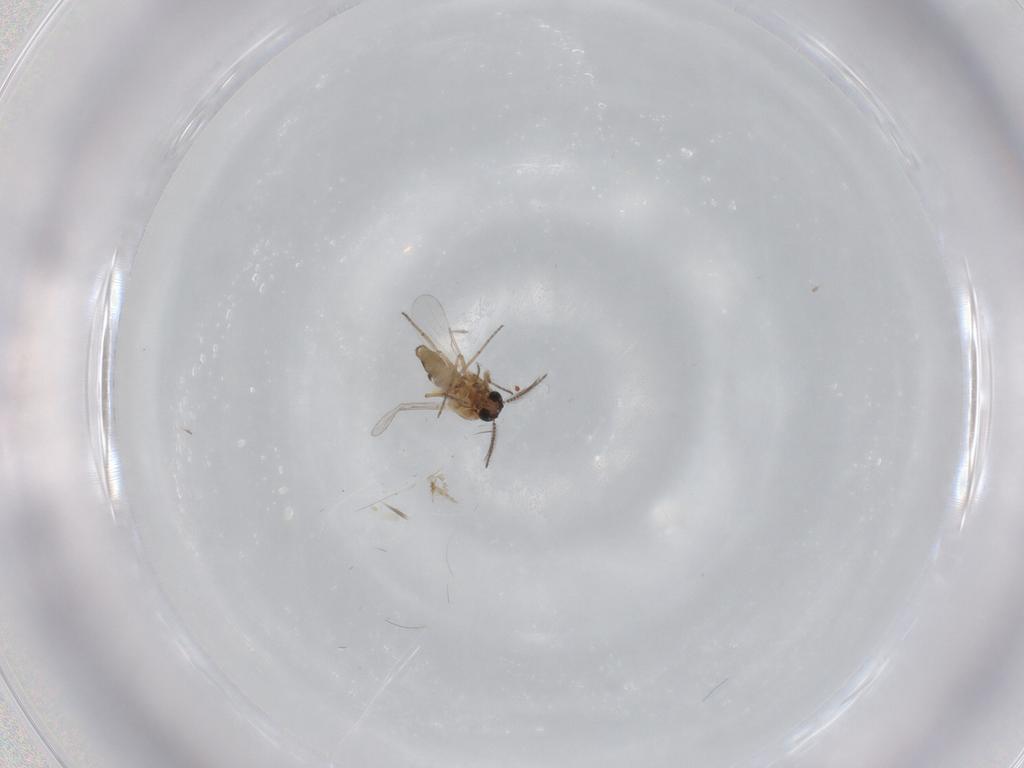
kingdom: Animalia
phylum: Arthropoda
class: Insecta
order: Diptera
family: Ceratopogonidae
